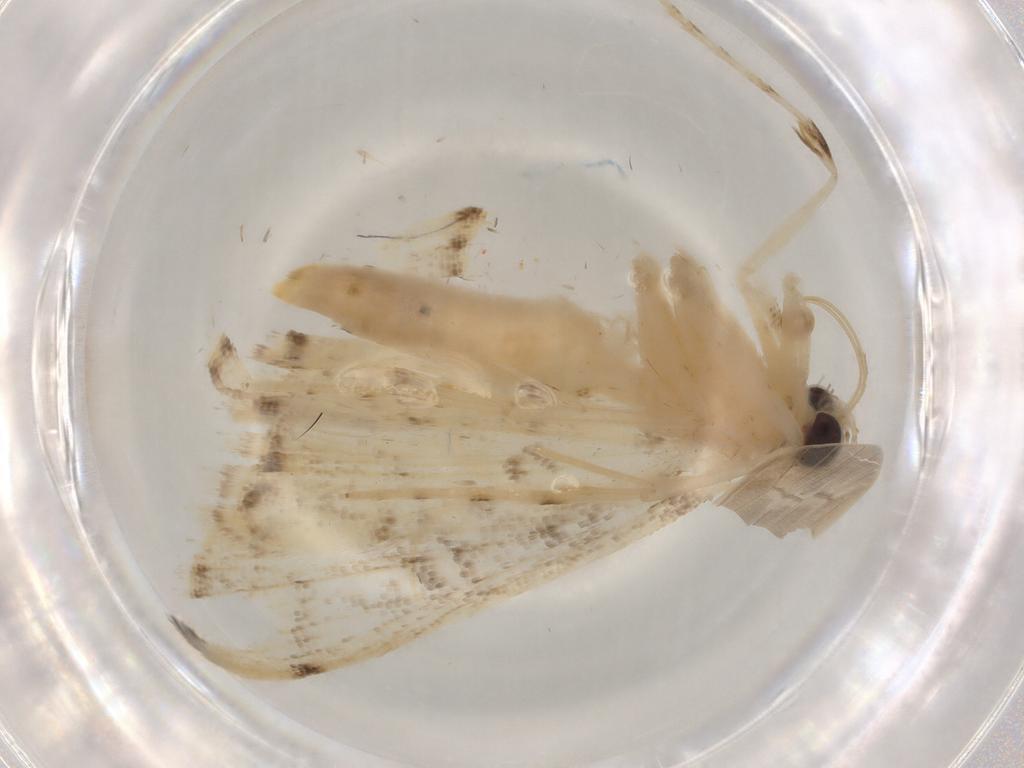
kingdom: Animalia
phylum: Arthropoda
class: Insecta
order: Lepidoptera
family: Crambidae
